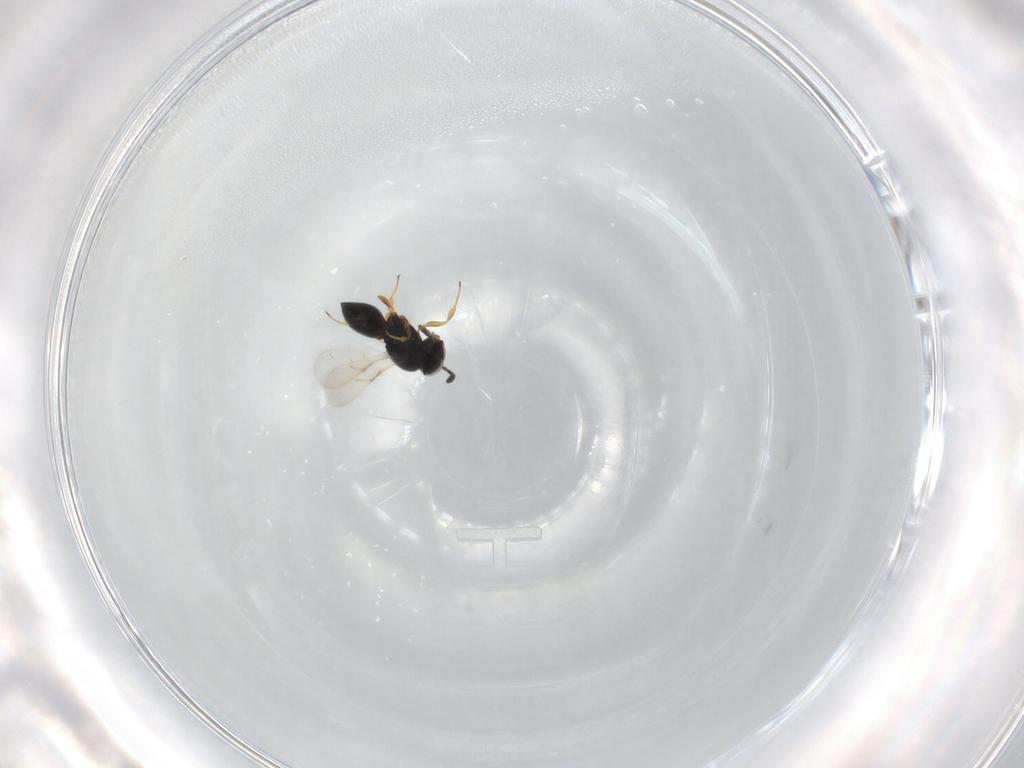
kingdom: Animalia
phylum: Arthropoda
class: Insecta
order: Hymenoptera
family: Scelionidae
